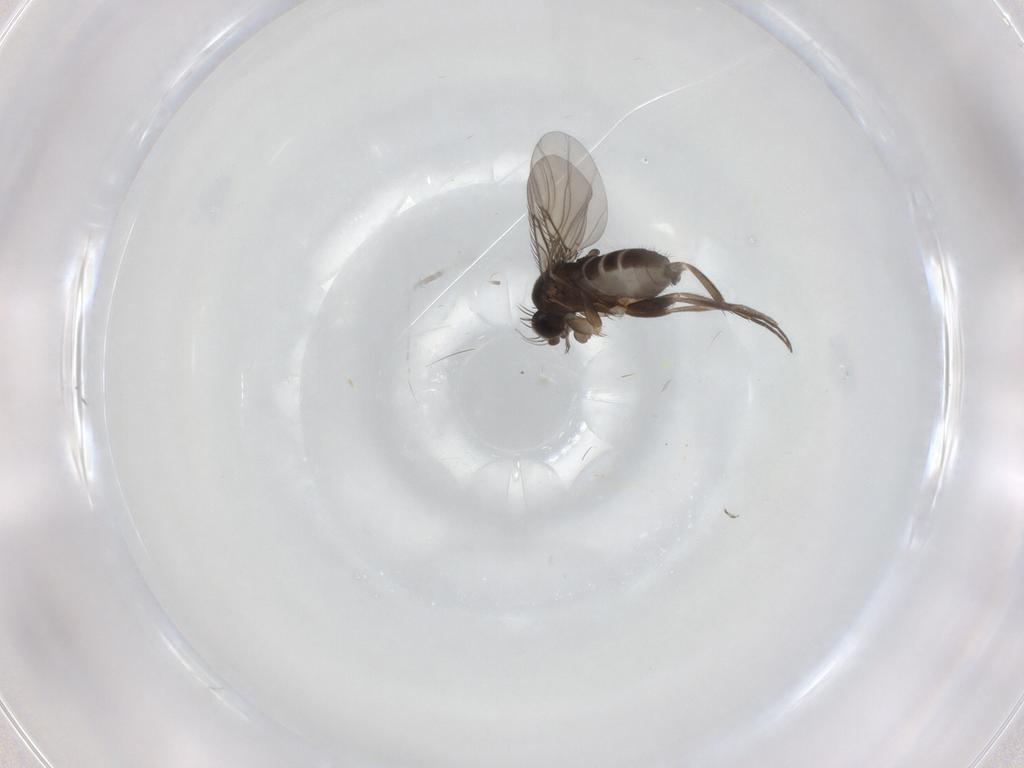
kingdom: Animalia
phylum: Arthropoda
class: Insecta
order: Diptera
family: Phoridae
